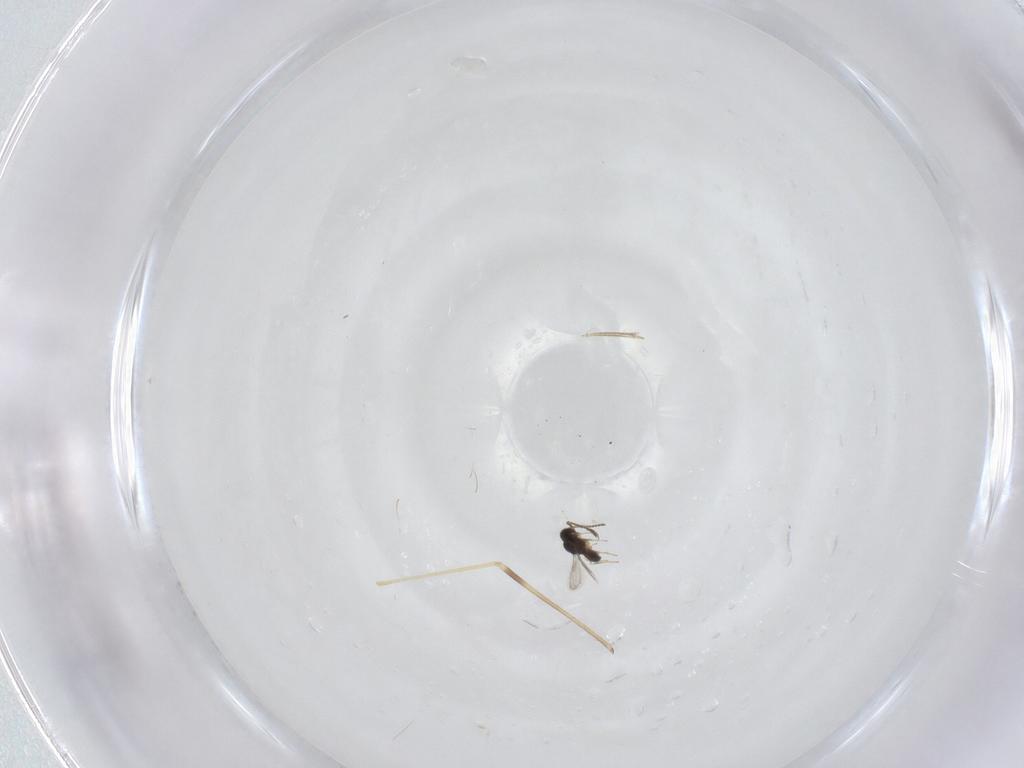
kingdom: Animalia
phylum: Arthropoda
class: Insecta
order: Hymenoptera
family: Scelionidae
